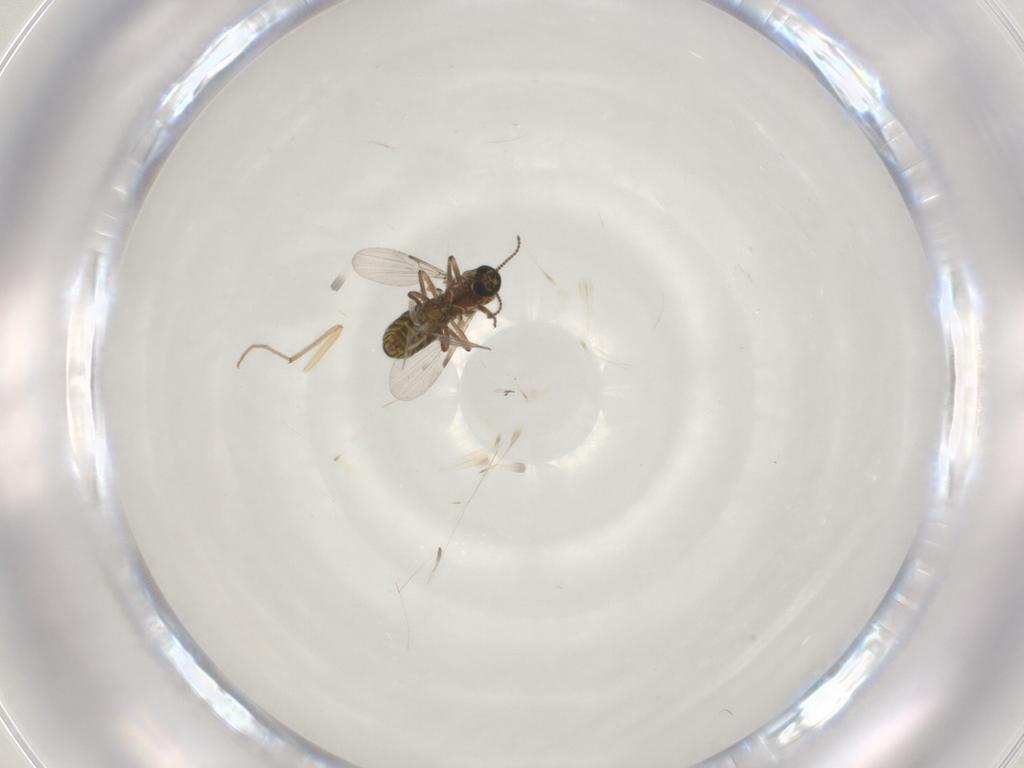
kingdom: Animalia
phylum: Arthropoda
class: Insecta
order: Diptera
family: Ceratopogonidae
